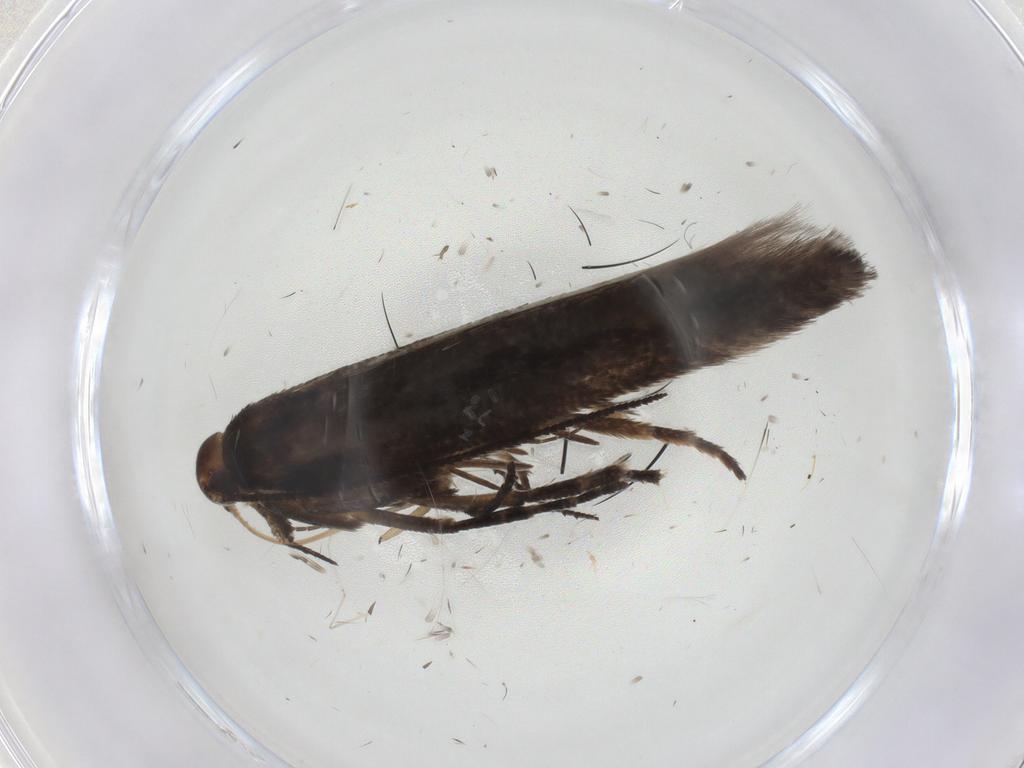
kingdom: Animalia
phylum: Arthropoda
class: Insecta
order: Lepidoptera
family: Gelechiidae
